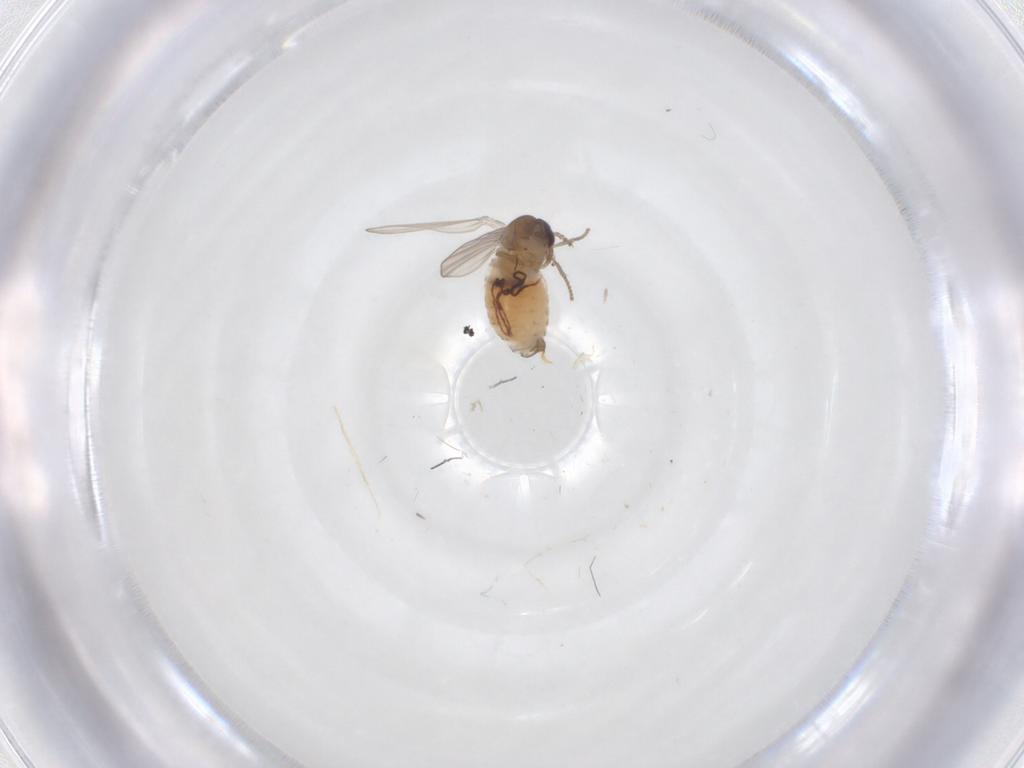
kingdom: Animalia
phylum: Arthropoda
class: Insecta
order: Diptera
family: Psychodidae
